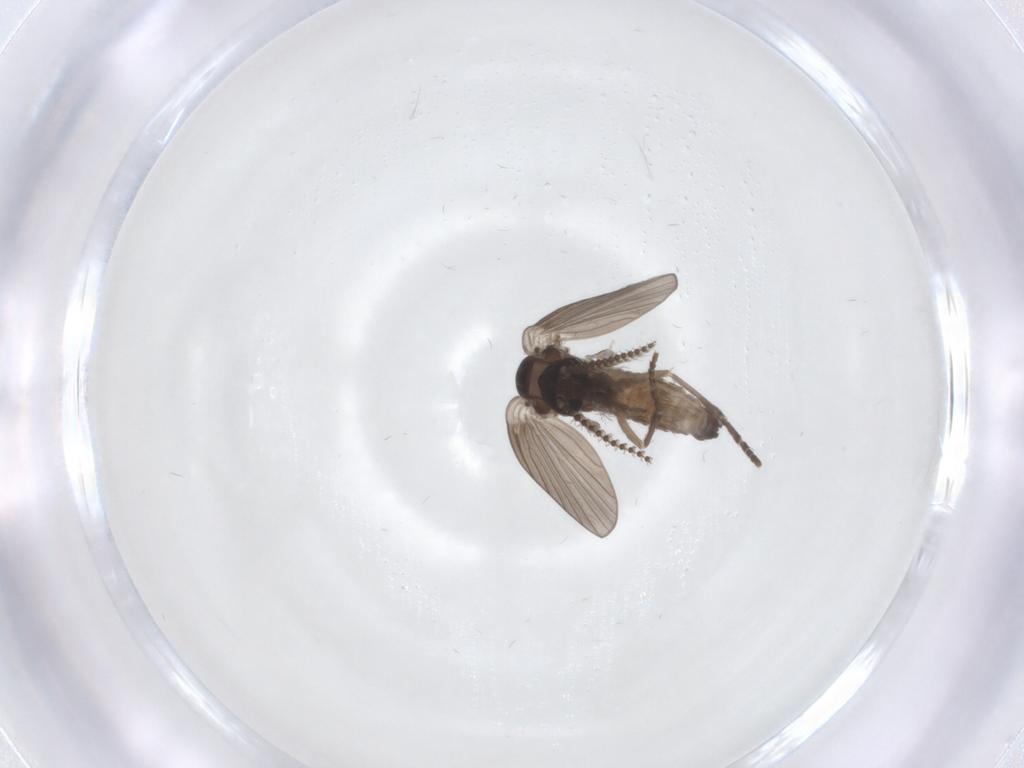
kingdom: Animalia
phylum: Arthropoda
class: Insecta
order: Diptera
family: Psychodidae
